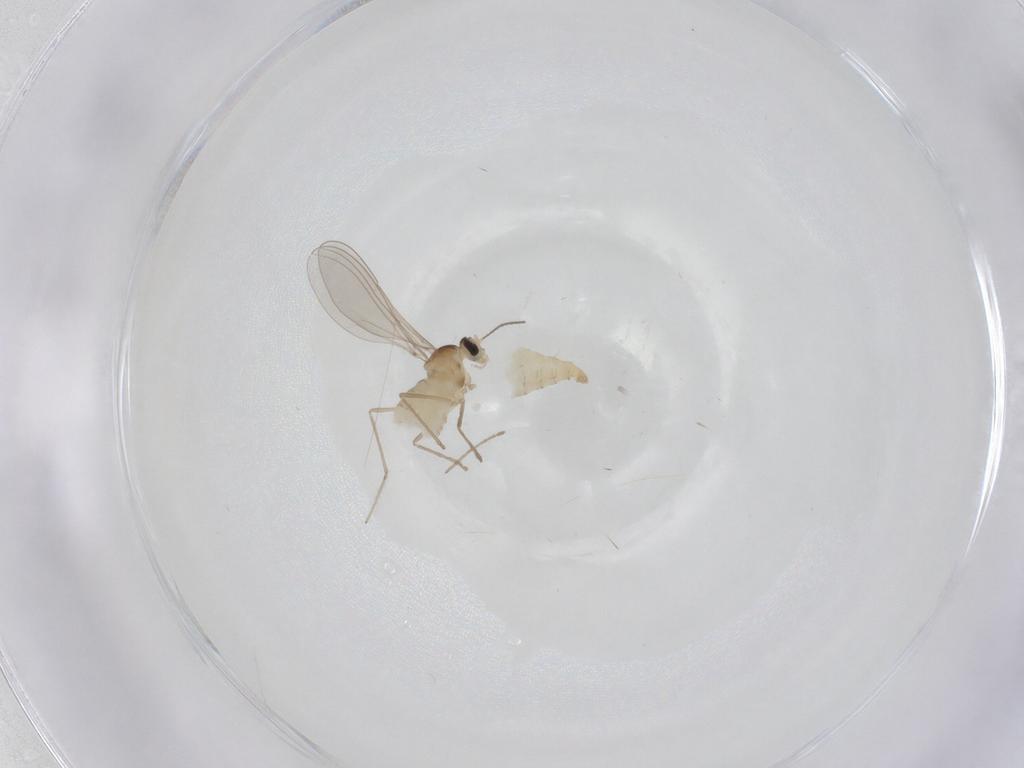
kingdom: Animalia
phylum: Arthropoda
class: Insecta
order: Diptera
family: Cecidomyiidae
